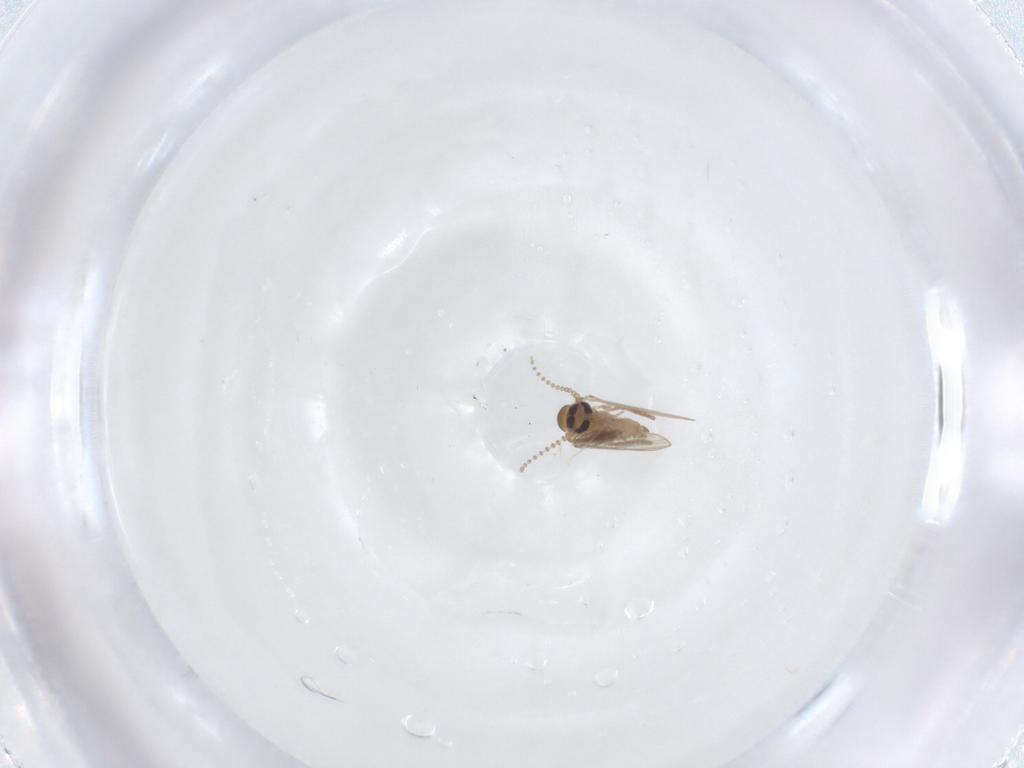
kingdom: Animalia
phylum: Arthropoda
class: Insecta
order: Diptera
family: Psychodidae
